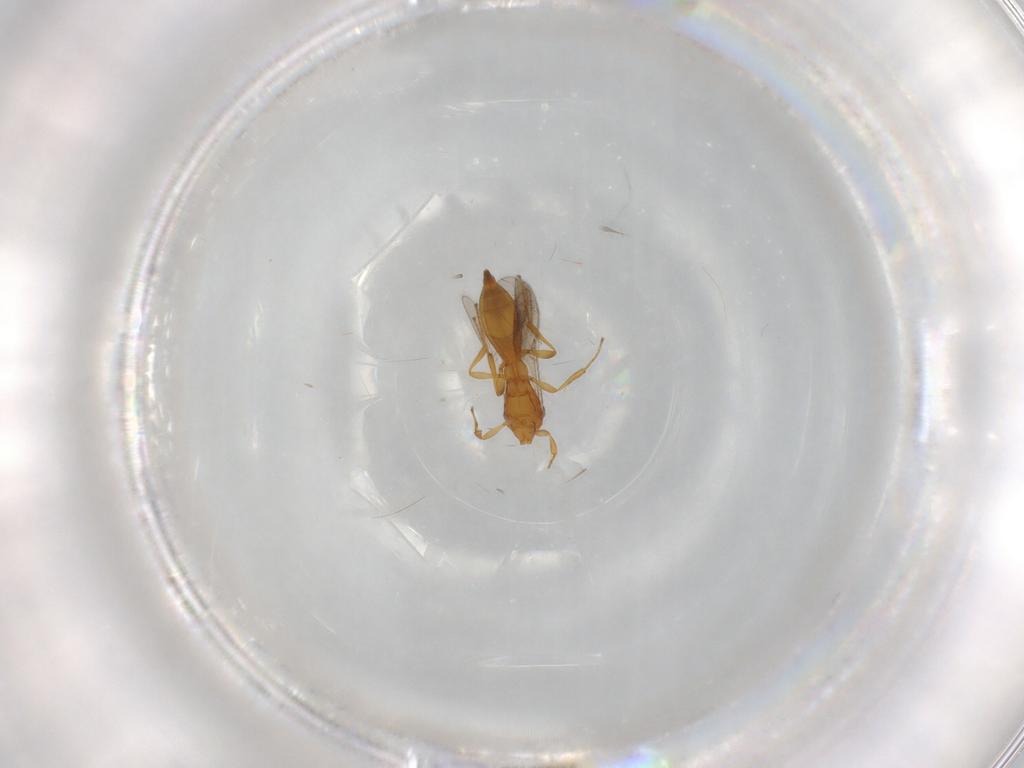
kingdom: Animalia
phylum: Arthropoda
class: Insecta
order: Hymenoptera
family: Scelionidae
